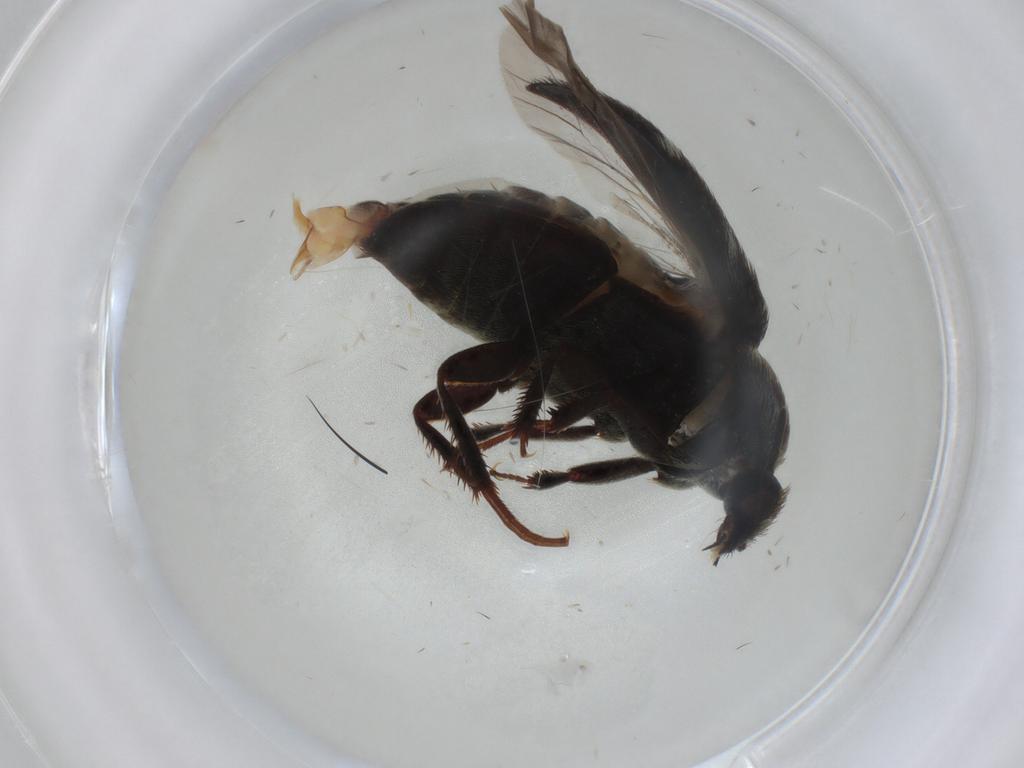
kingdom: Animalia
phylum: Arthropoda
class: Insecta
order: Coleoptera
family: Dermestidae
